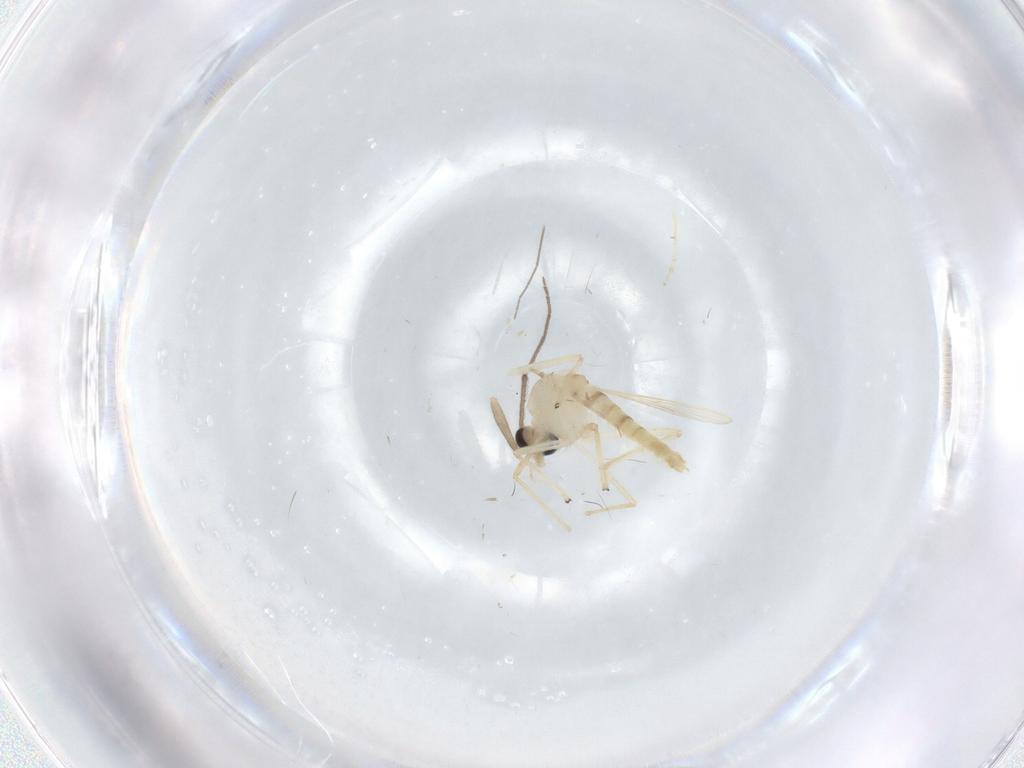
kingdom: Animalia
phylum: Arthropoda
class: Insecta
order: Diptera
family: Chironomidae
